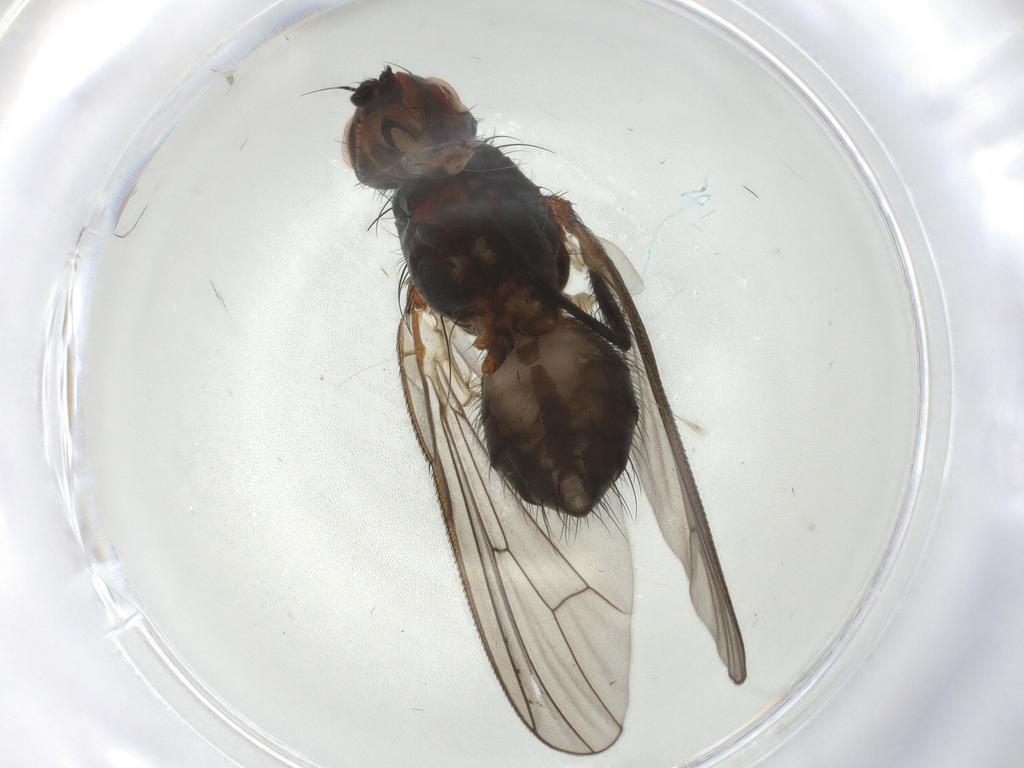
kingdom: Animalia
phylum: Arthropoda
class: Insecta
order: Diptera
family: Anthomyiidae
